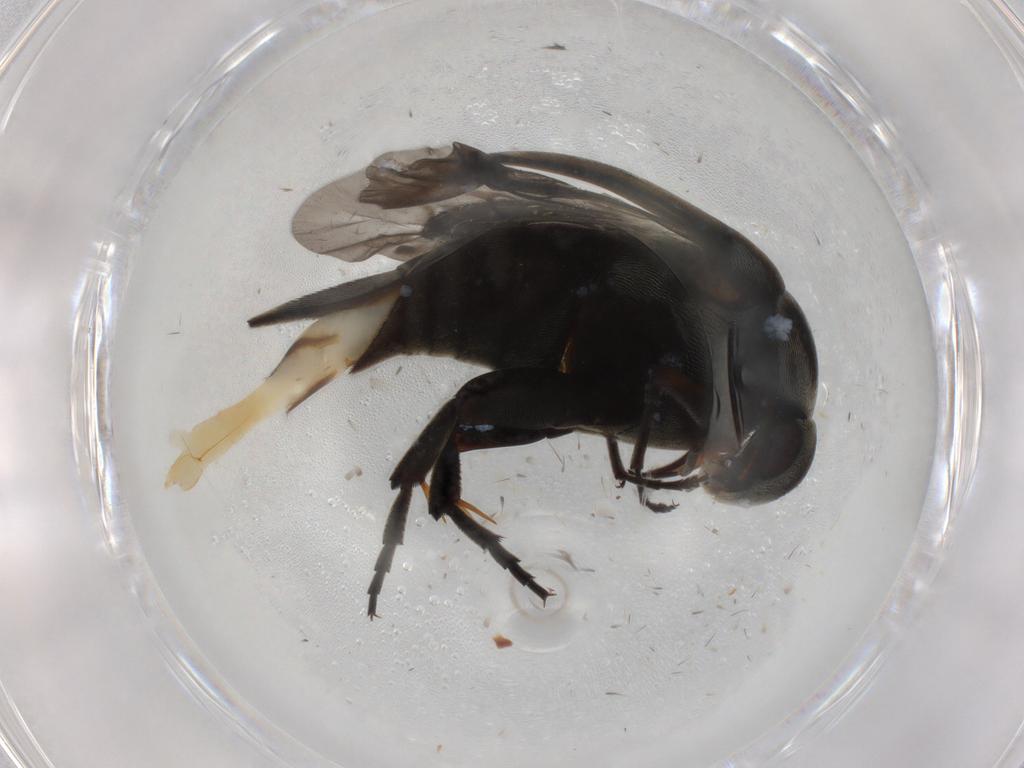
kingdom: Animalia
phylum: Arthropoda
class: Insecta
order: Coleoptera
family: Mordellidae
